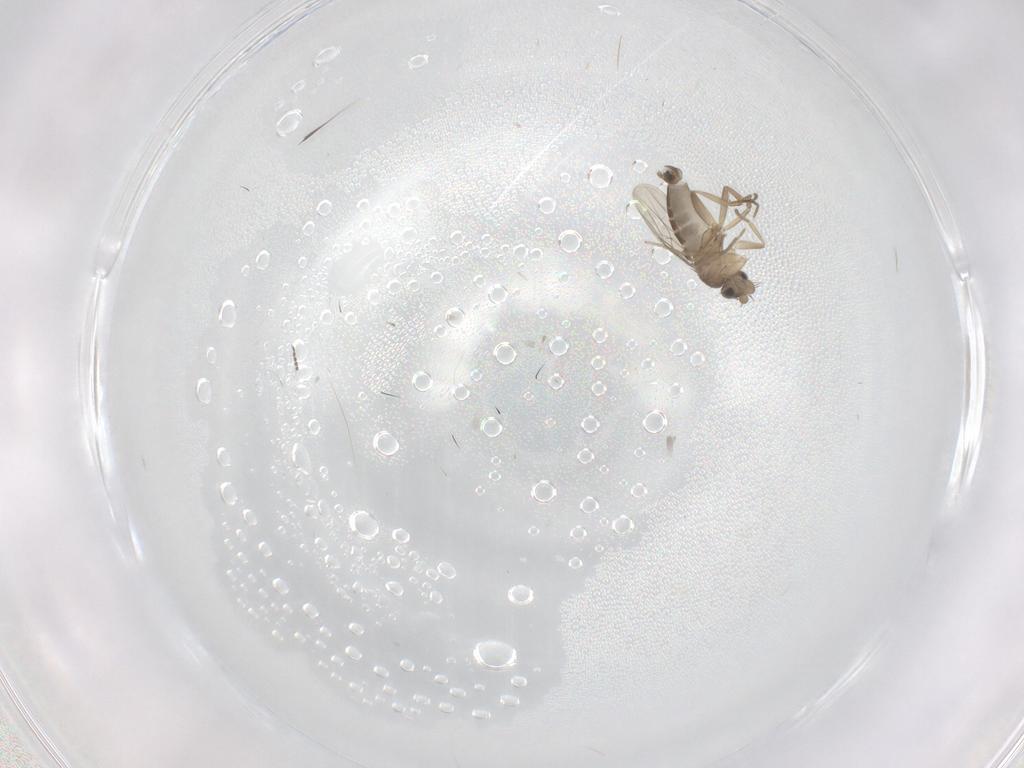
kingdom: Animalia
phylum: Arthropoda
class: Insecta
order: Diptera
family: Phoridae
